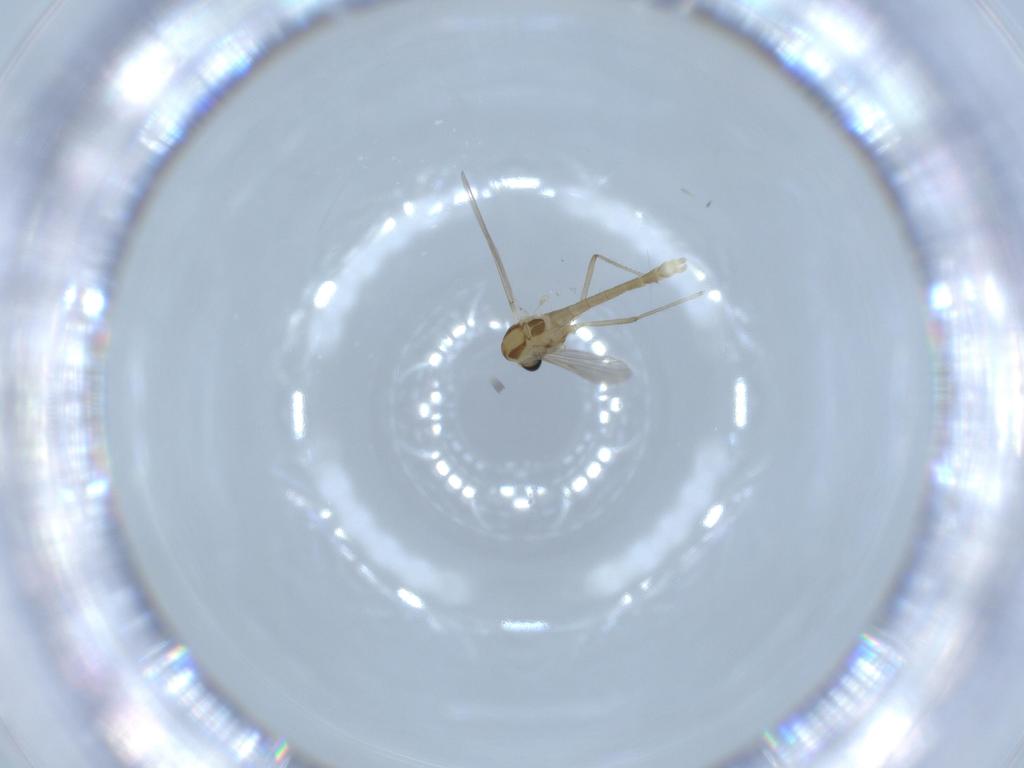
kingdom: Animalia
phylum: Arthropoda
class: Insecta
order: Diptera
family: Chironomidae
